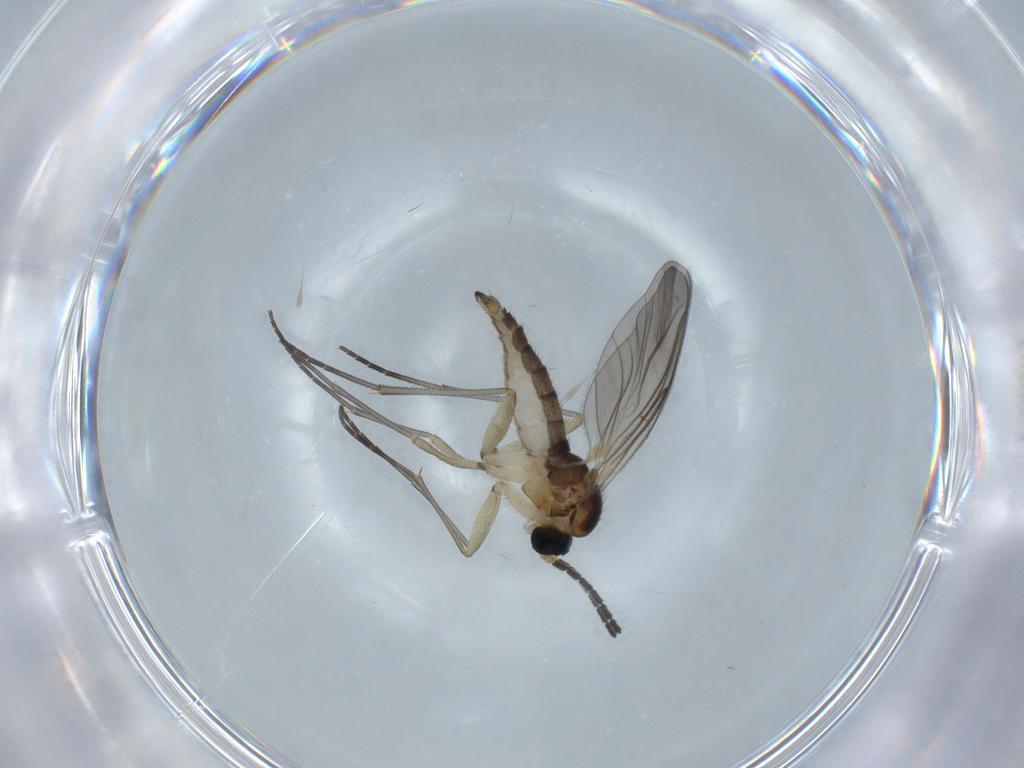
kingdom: Animalia
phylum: Arthropoda
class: Insecta
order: Diptera
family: Sciaridae
